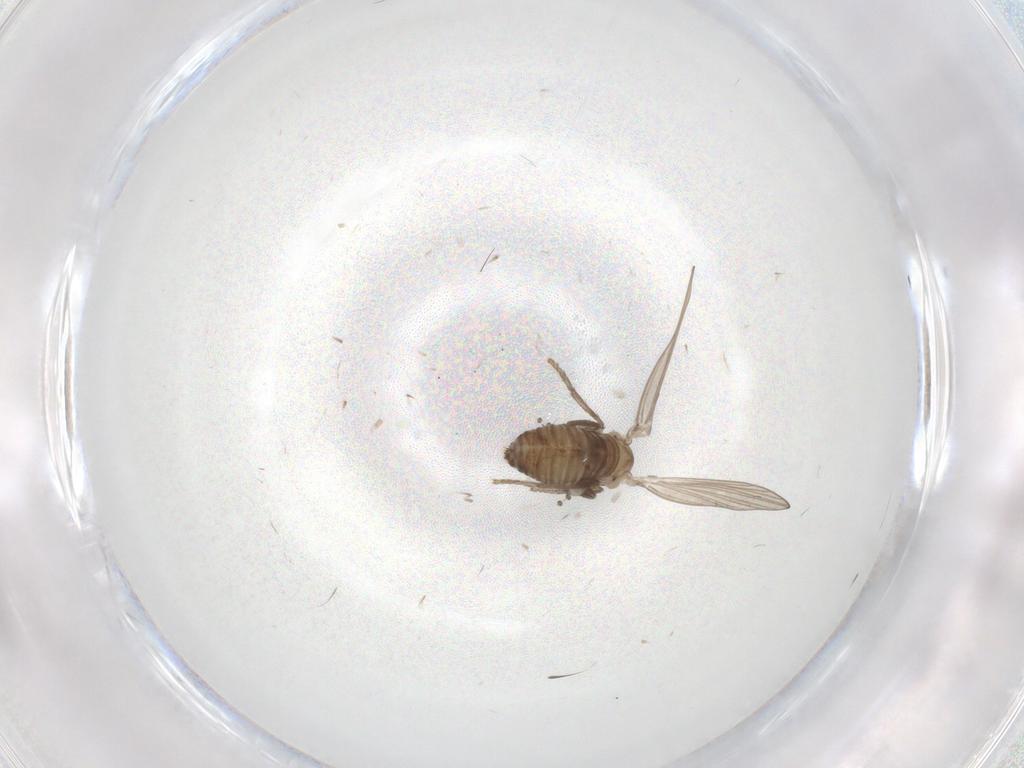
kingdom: Animalia
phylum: Arthropoda
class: Insecta
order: Diptera
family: Psychodidae
